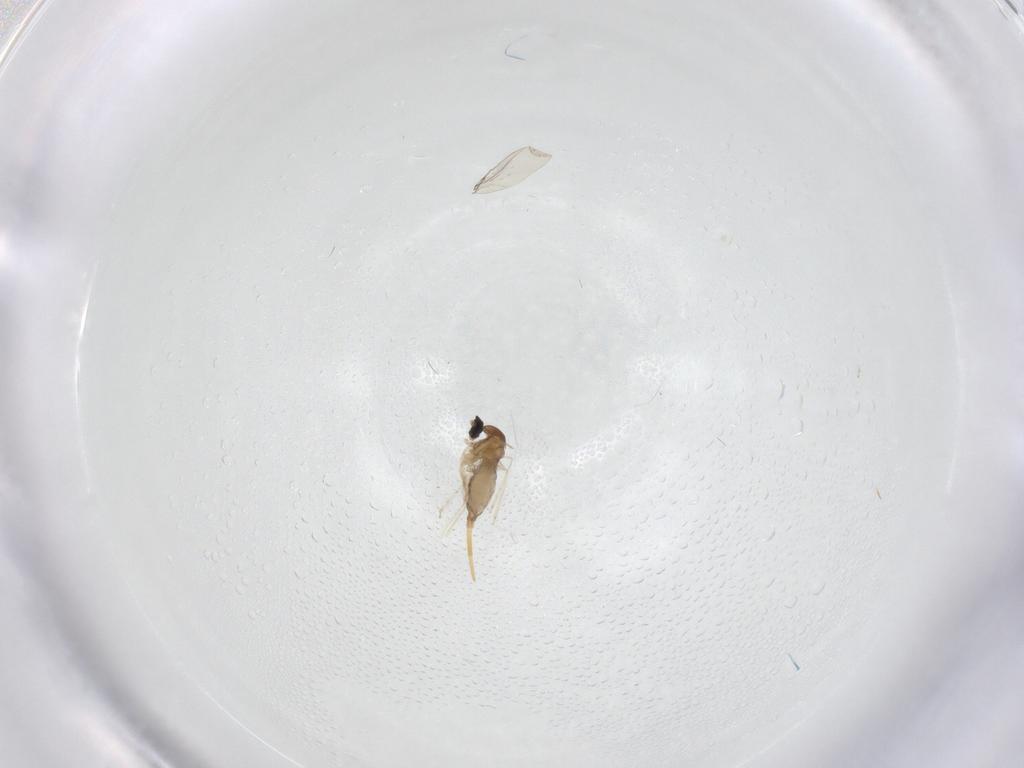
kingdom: Animalia
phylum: Arthropoda
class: Insecta
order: Diptera
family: Cecidomyiidae
